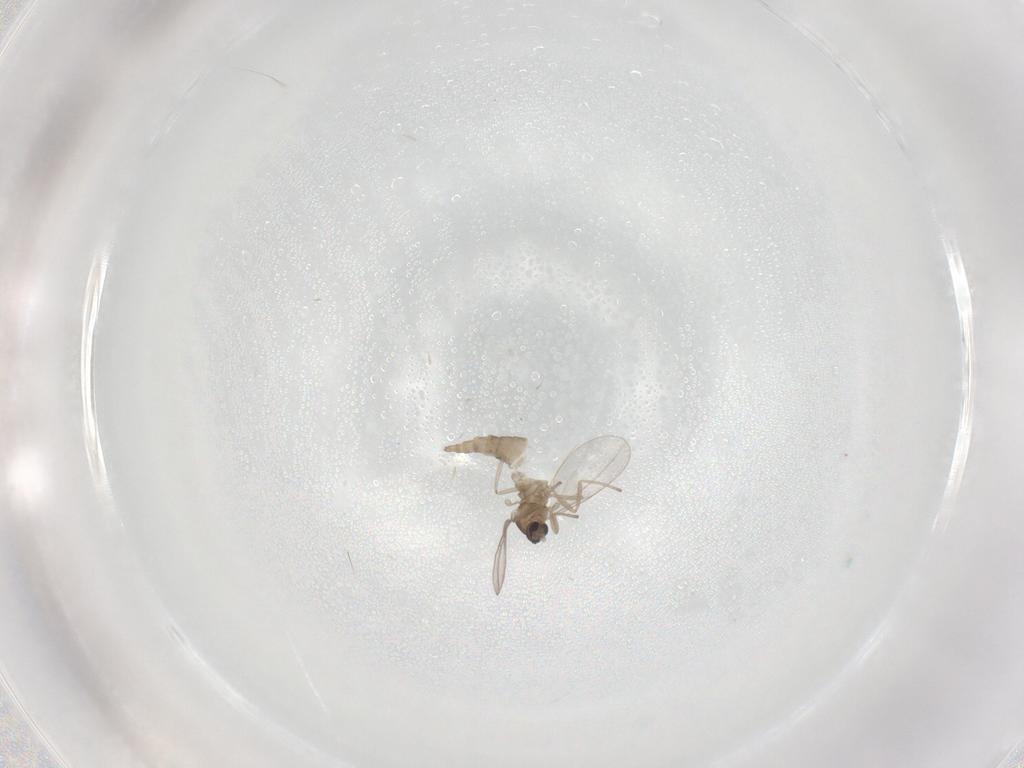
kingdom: Animalia
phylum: Arthropoda
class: Insecta
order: Diptera
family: Cecidomyiidae
